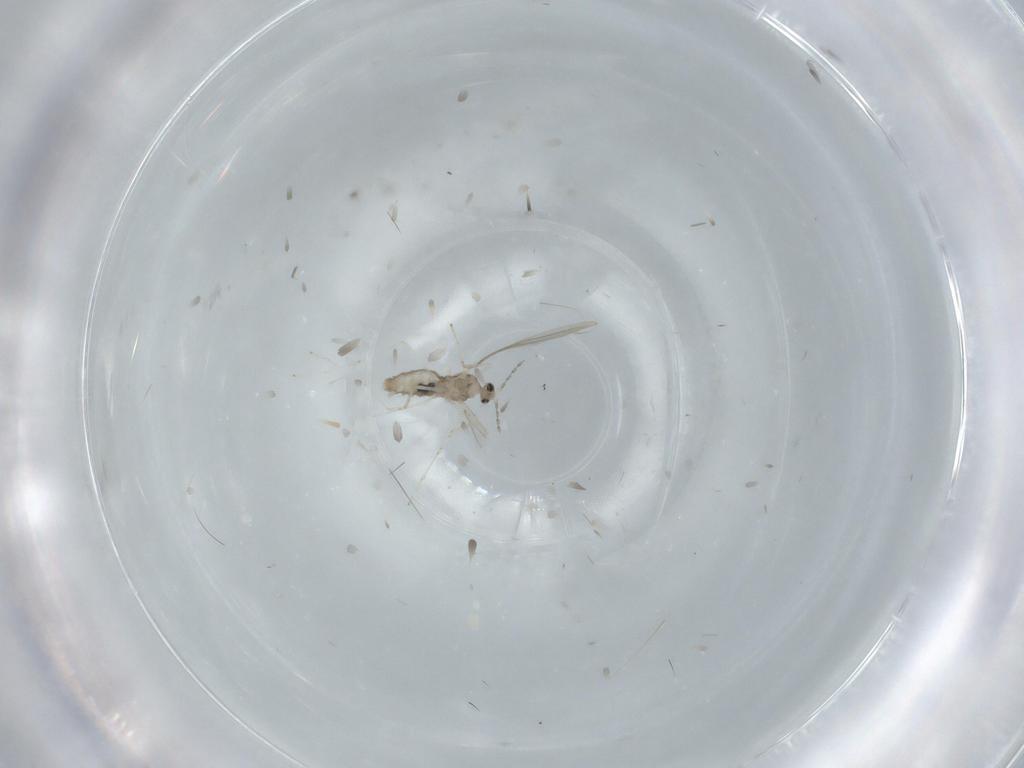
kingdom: Animalia
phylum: Arthropoda
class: Insecta
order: Diptera
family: Cecidomyiidae
